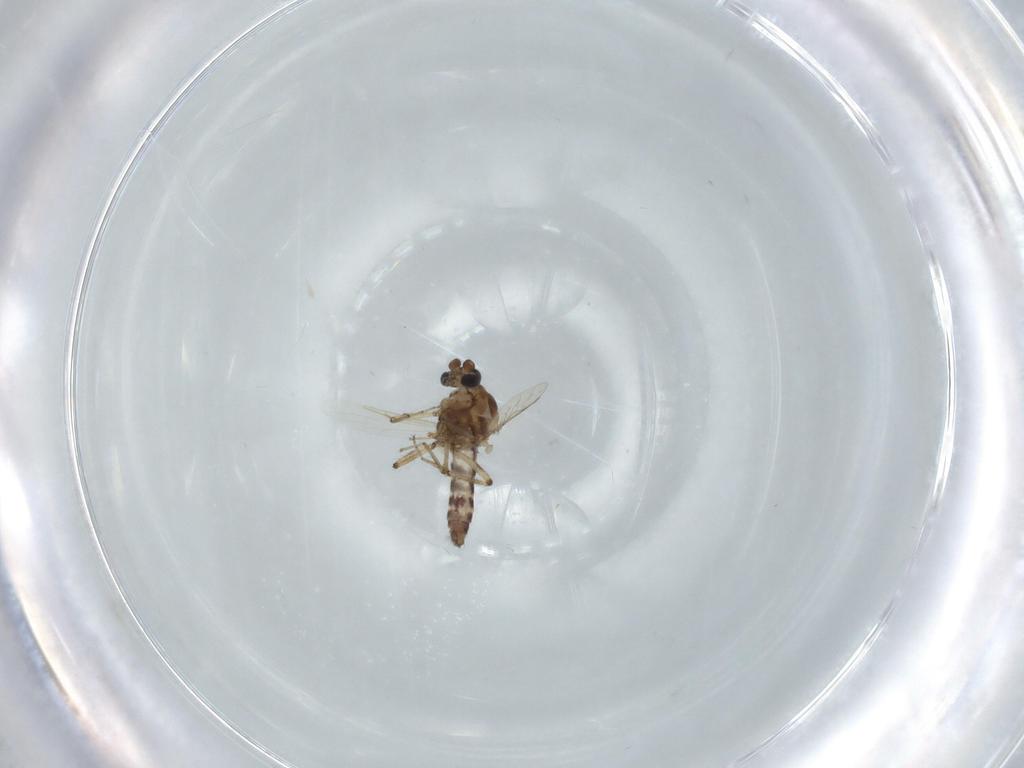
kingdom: Animalia
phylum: Arthropoda
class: Insecta
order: Diptera
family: Ceratopogonidae
